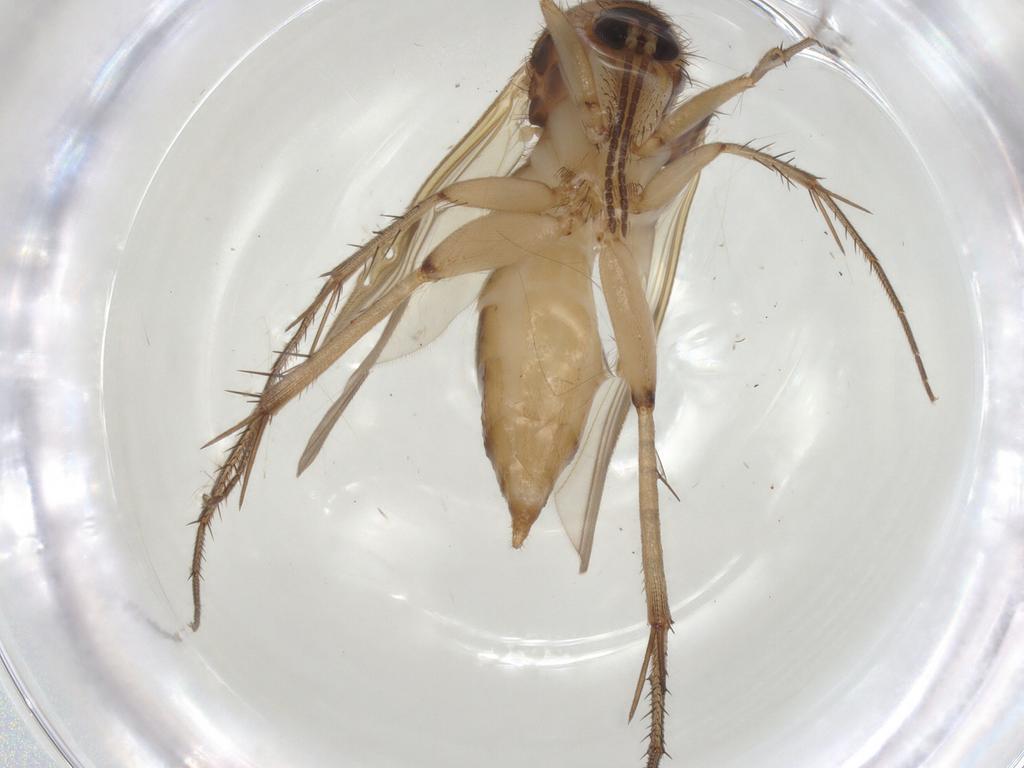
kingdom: Animalia
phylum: Arthropoda
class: Insecta
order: Diptera
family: Mycetophilidae
